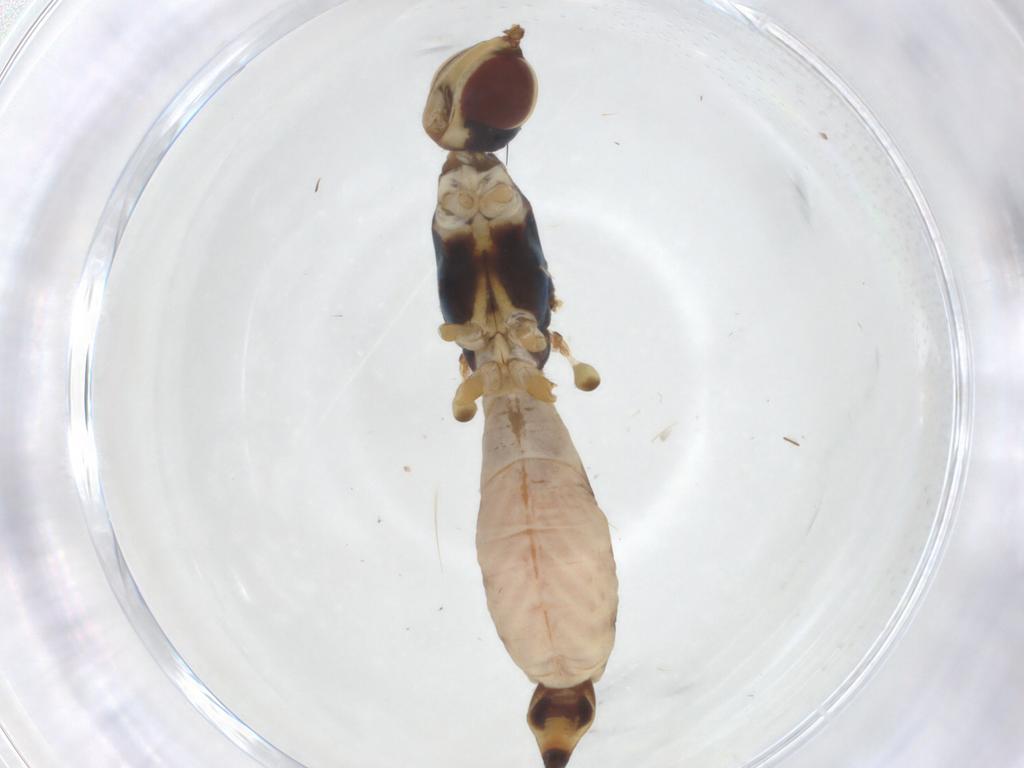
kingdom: Animalia
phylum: Arthropoda
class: Insecta
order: Diptera
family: Micropezidae
